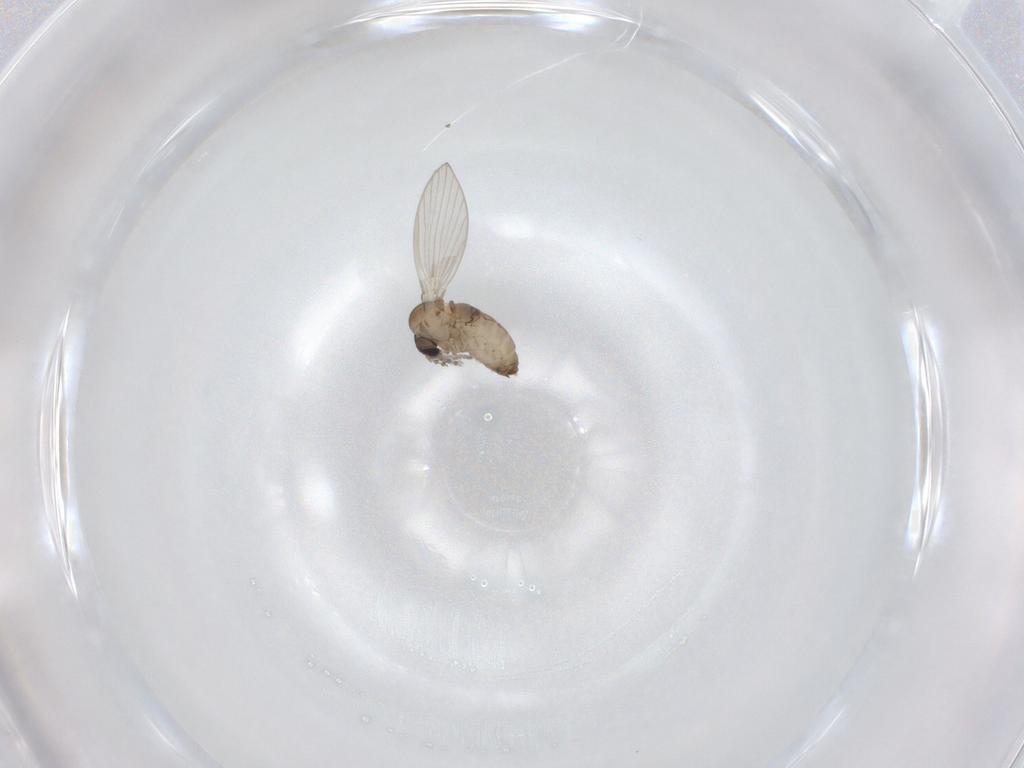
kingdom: Animalia
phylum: Arthropoda
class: Insecta
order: Diptera
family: Psychodidae
